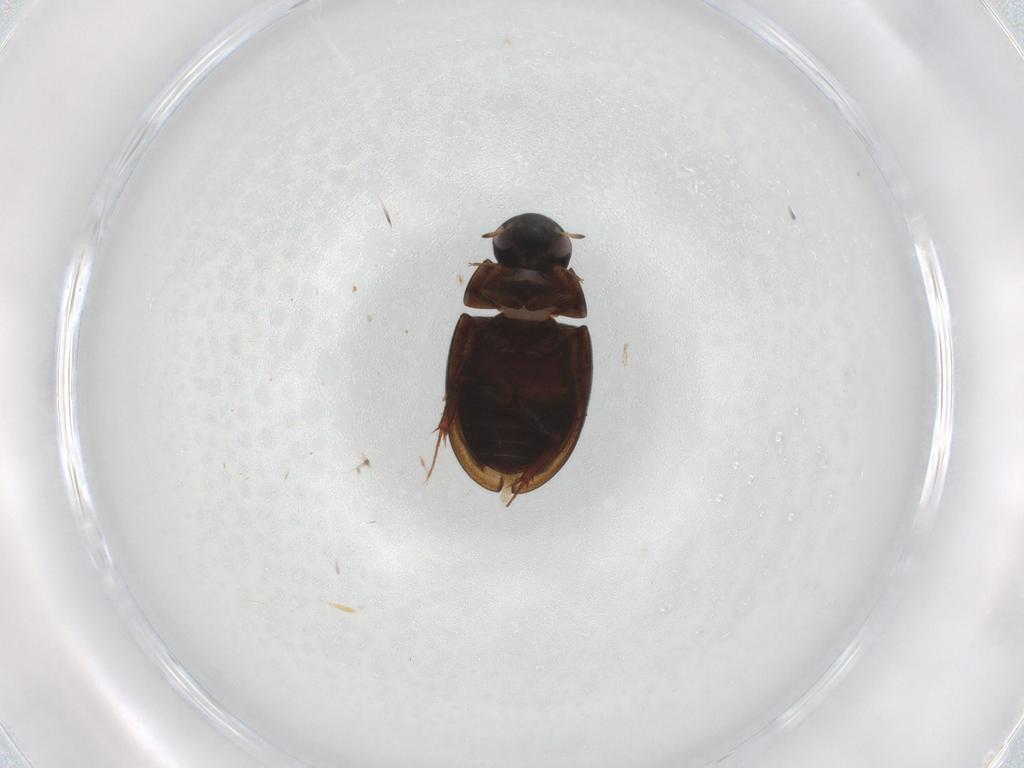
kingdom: Animalia
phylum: Arthropoda
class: Insecta
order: Coleoptera
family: Hydrophilidae
